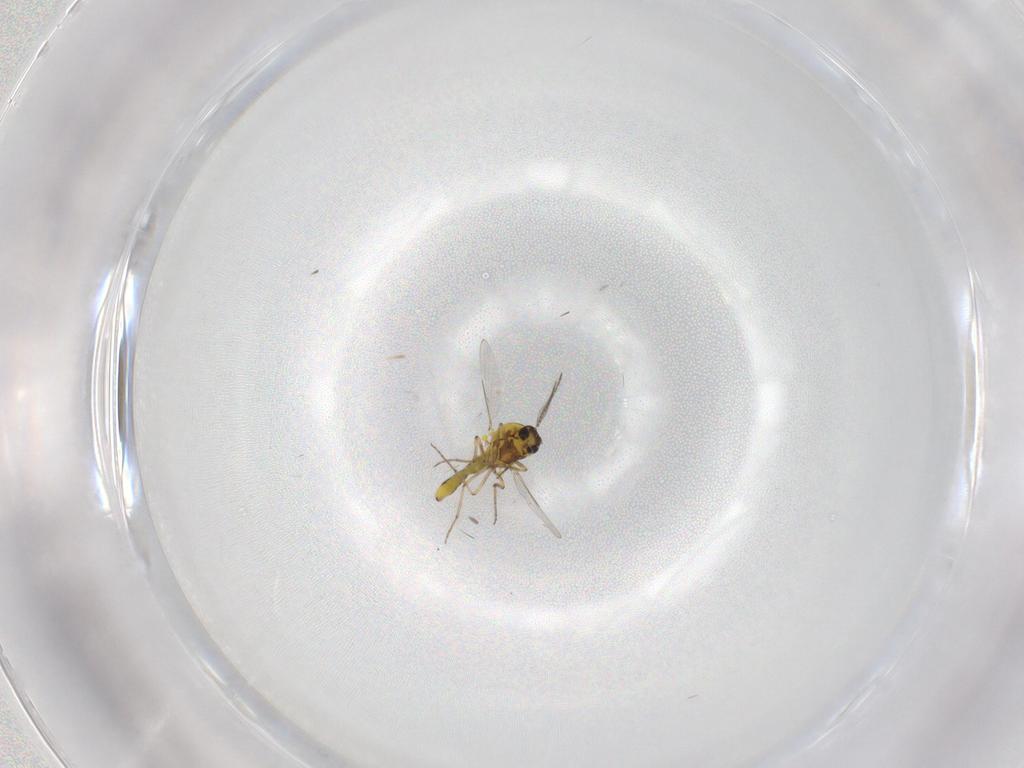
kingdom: Animalia
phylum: Arthropoda
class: Insecta
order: Diptera
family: Ceratopogonidae
